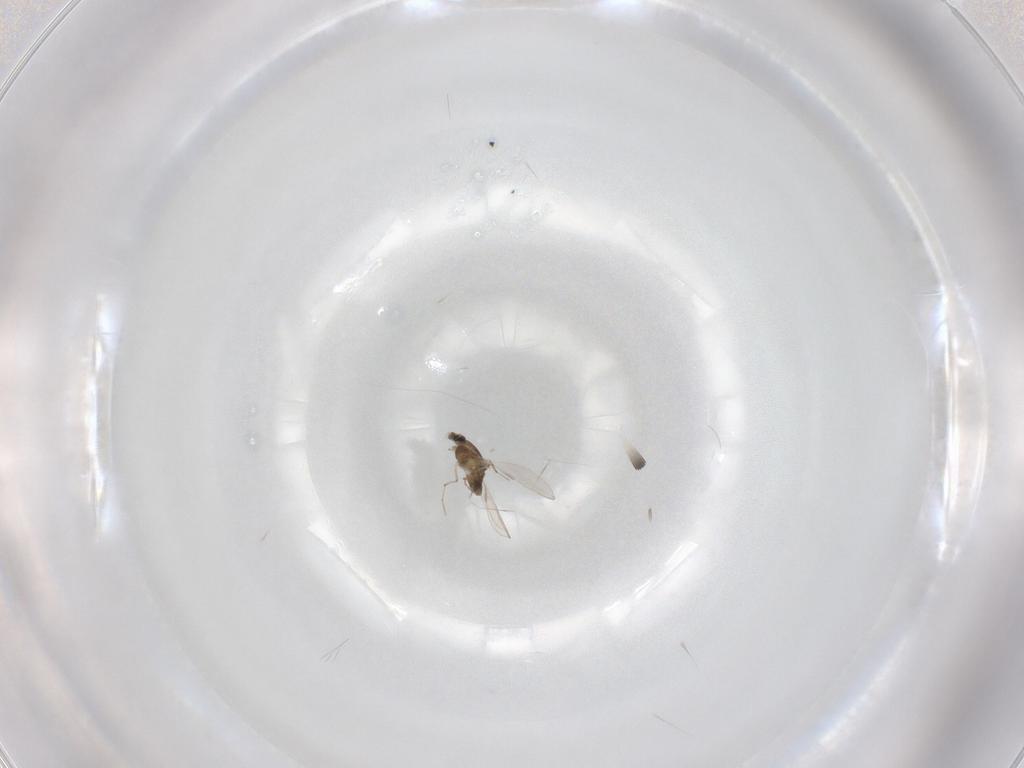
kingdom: Animalia
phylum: Arthropoda
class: Insecta
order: Diptera
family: Chironomidae
